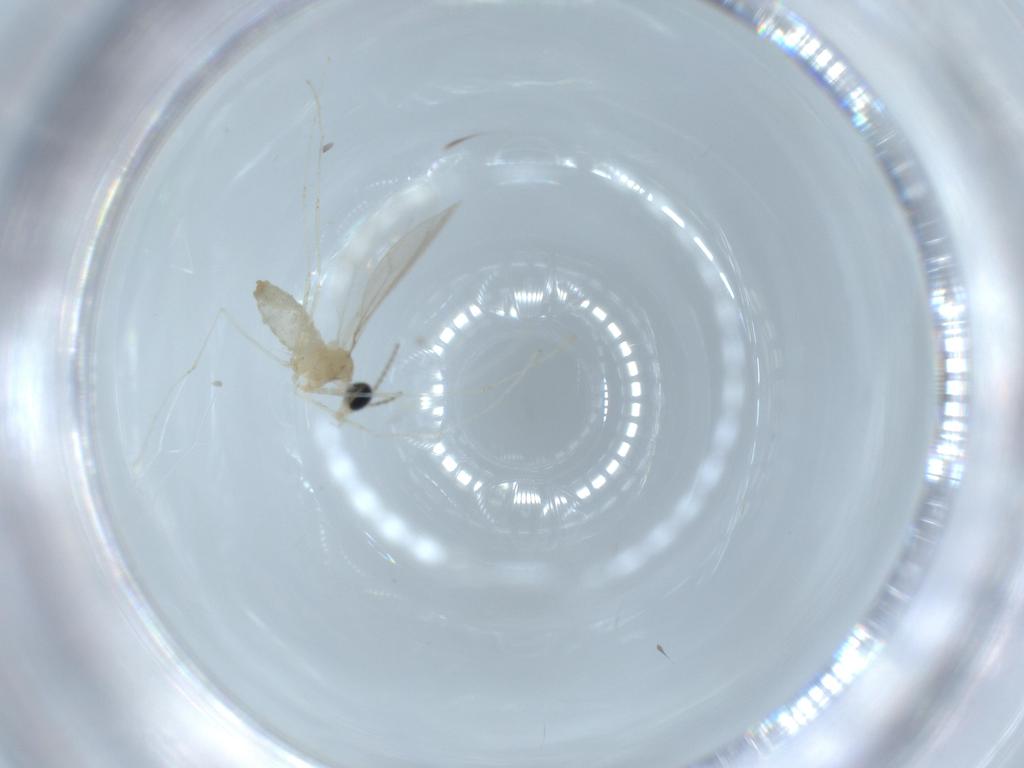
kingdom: Animalia
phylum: Arthropoda
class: Insecta
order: Diptera
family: Cecidomyiidae
